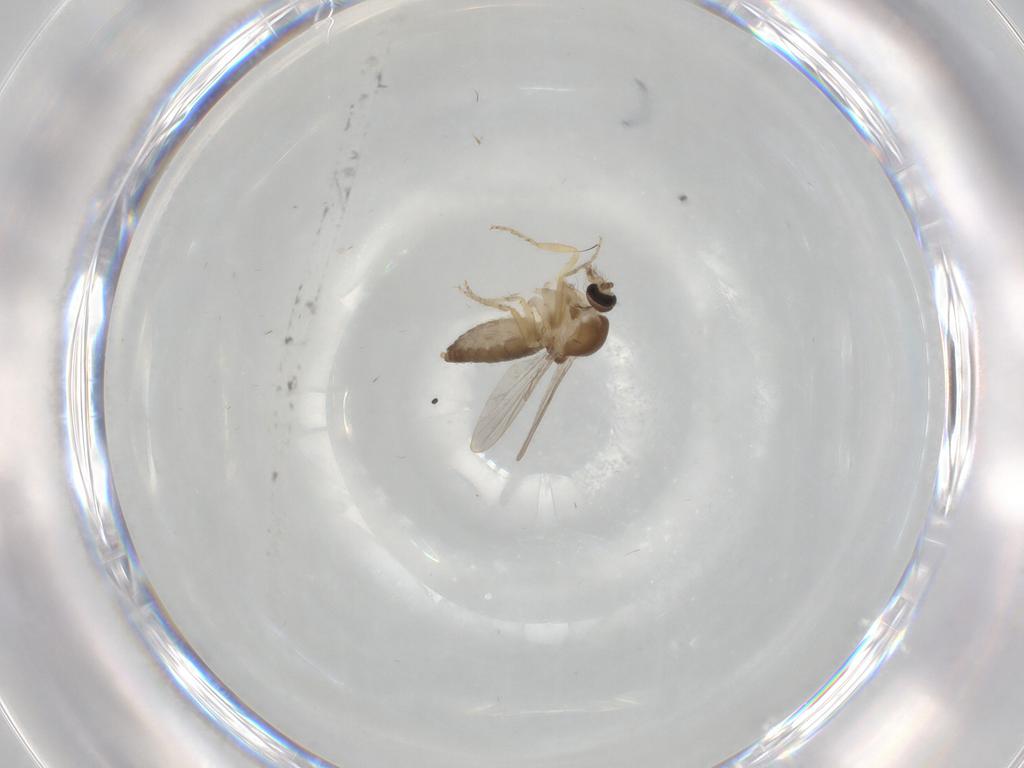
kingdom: Animalia
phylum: Arthropoda
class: Insecta
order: Diptera
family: Ceratopogonidae
